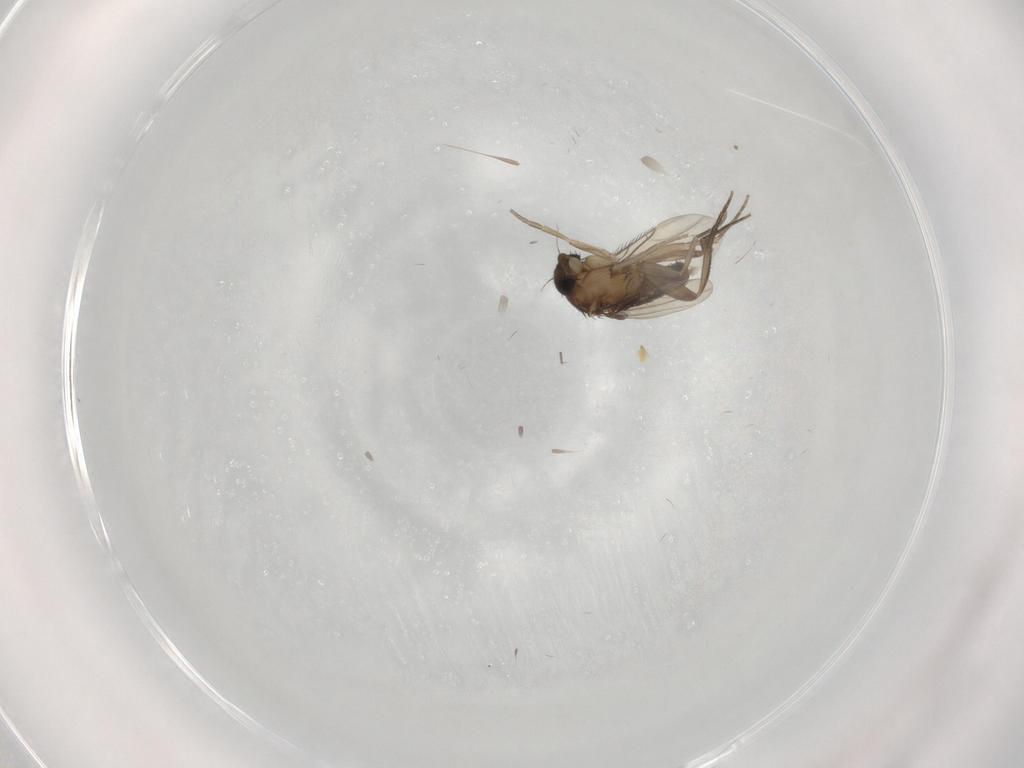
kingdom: Animalia
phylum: Arthropoda
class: Insecta
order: Diptera
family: Phoridae
